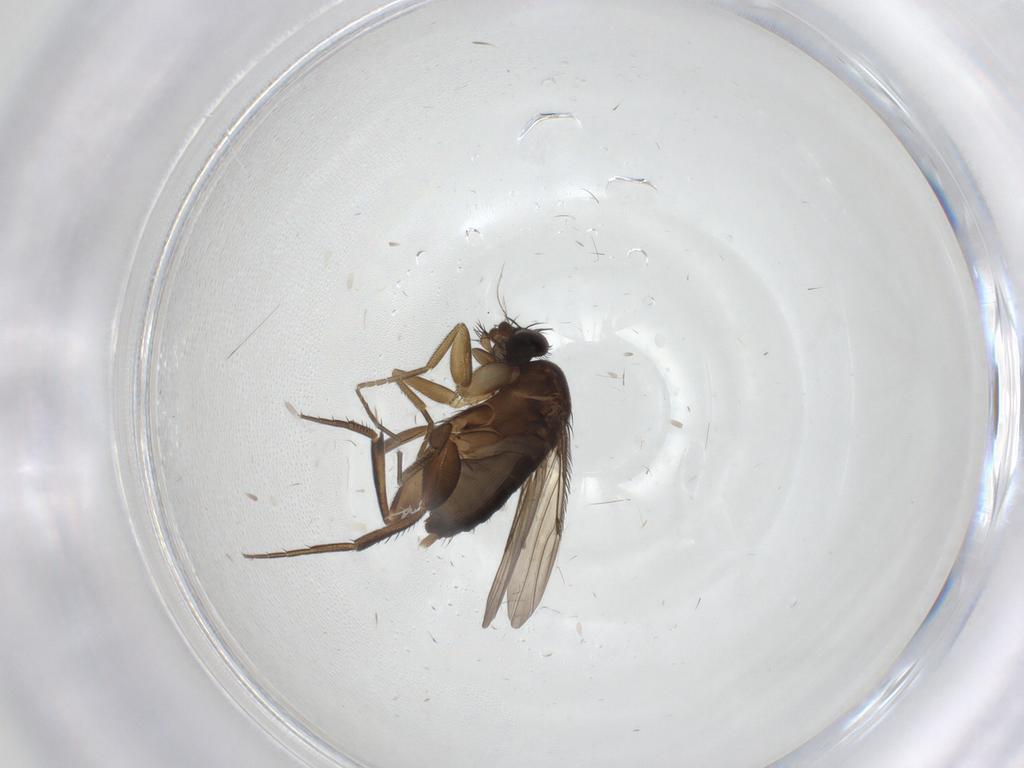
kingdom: Animalia
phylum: Arthropoda
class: Insecta
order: Diptera
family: Phoridae
